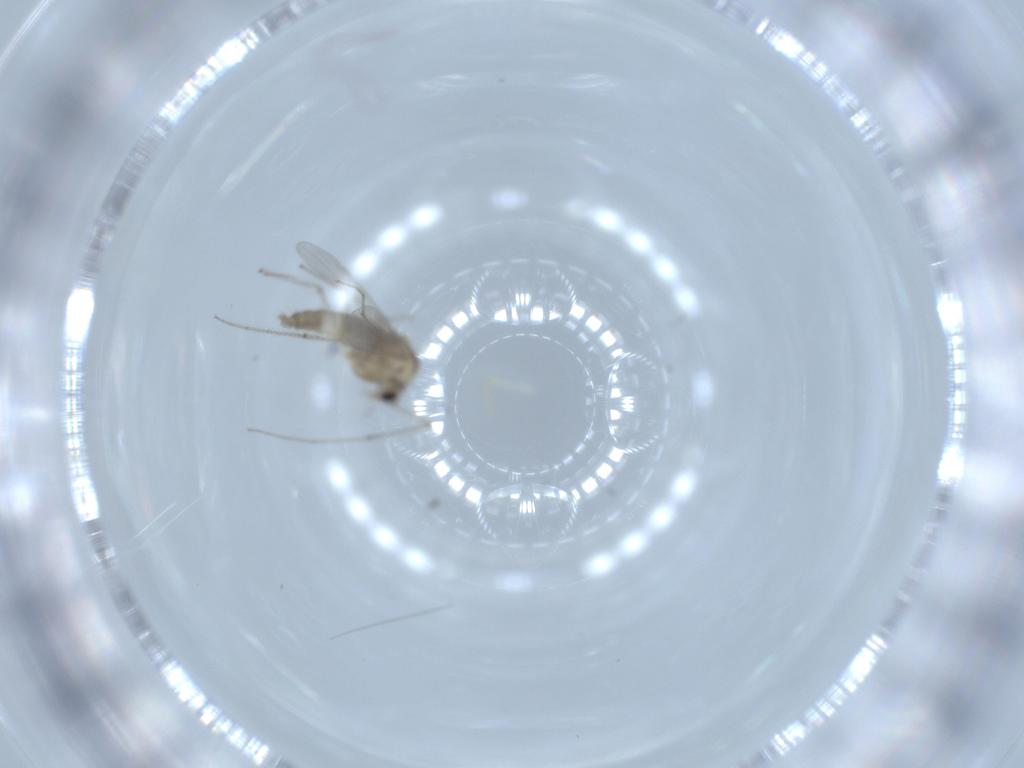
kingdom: Animalia
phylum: Arthropoda
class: Insecta
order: Diptera
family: Chironomidae
